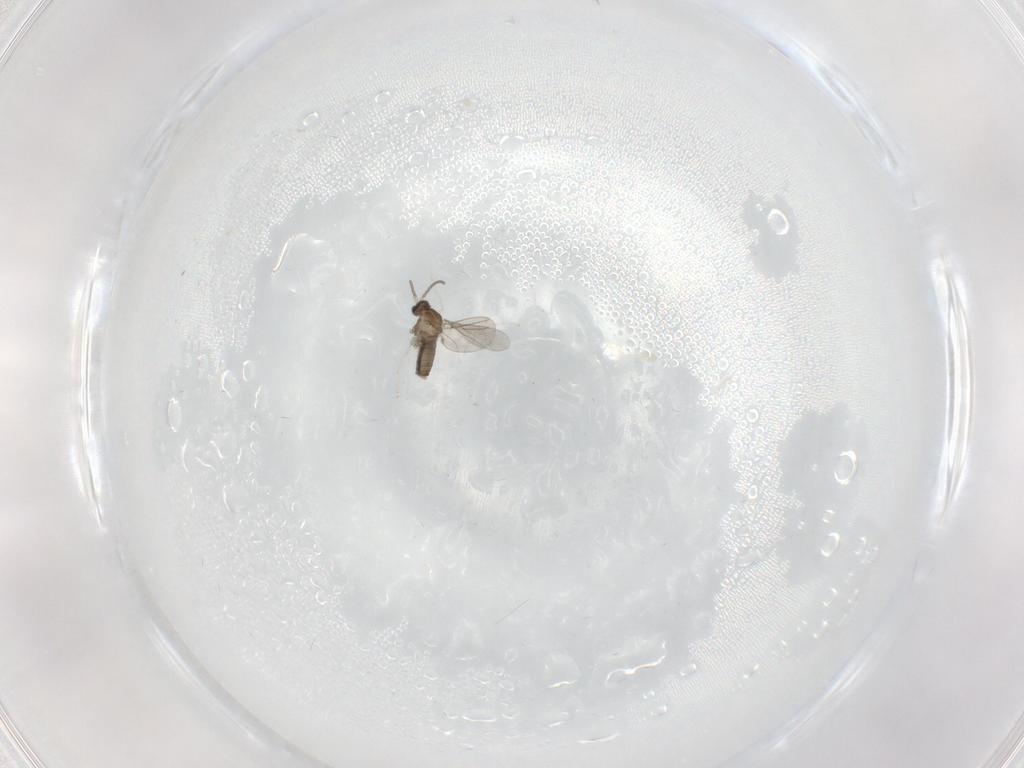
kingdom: Animalia
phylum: Arthropoda
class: Insecta
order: Diptera
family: Cecidomyiidae
